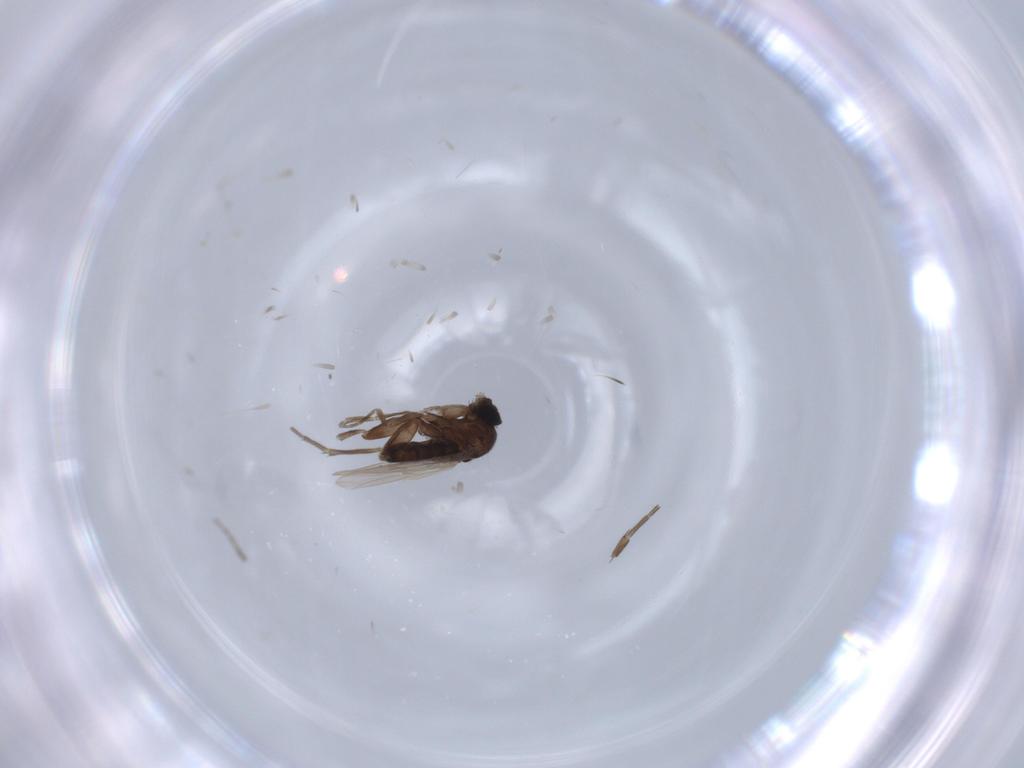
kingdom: Animalia
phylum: Arthropoda
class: Insecta
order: Diptera
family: Phoridae
